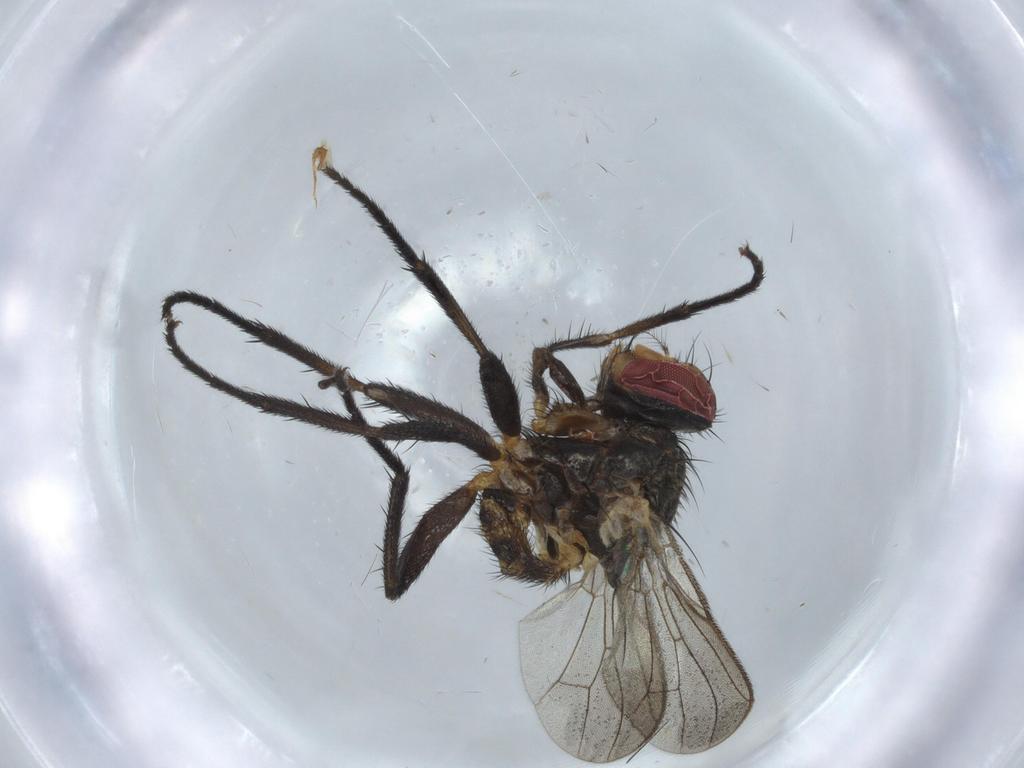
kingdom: Animalia
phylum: Arthropoda
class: Insecta
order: Diptera
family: Anthomyiidae
